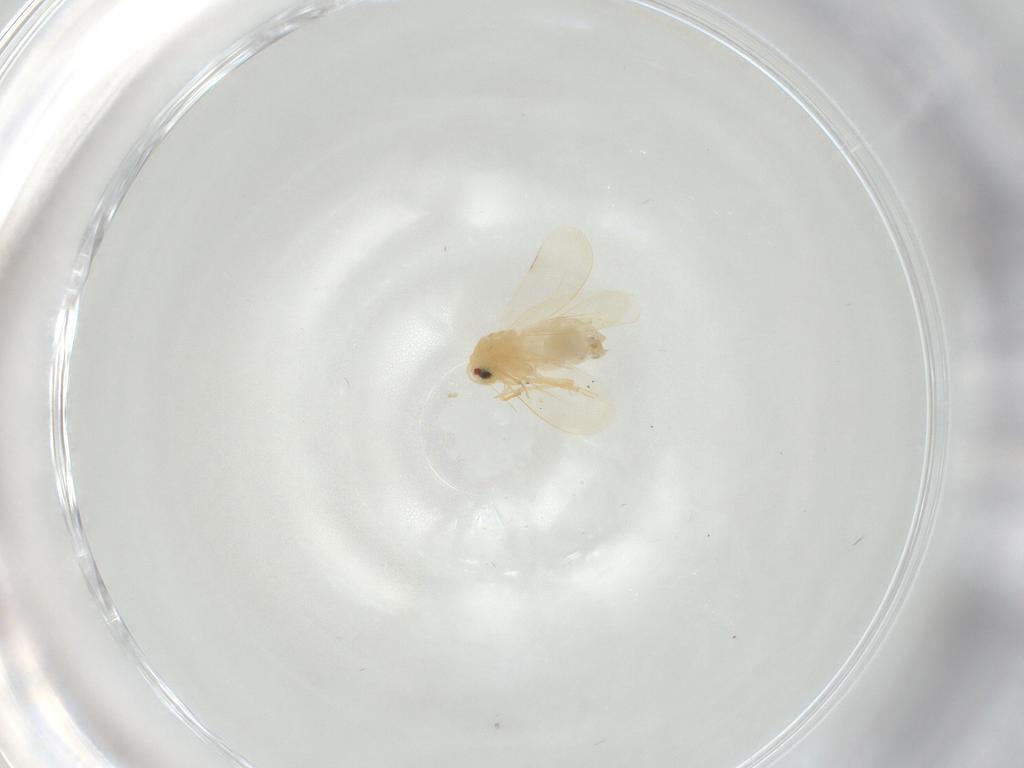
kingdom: Animalia
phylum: Arthropoda
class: Insecta
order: Hemiptera
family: Aleyrodidae
